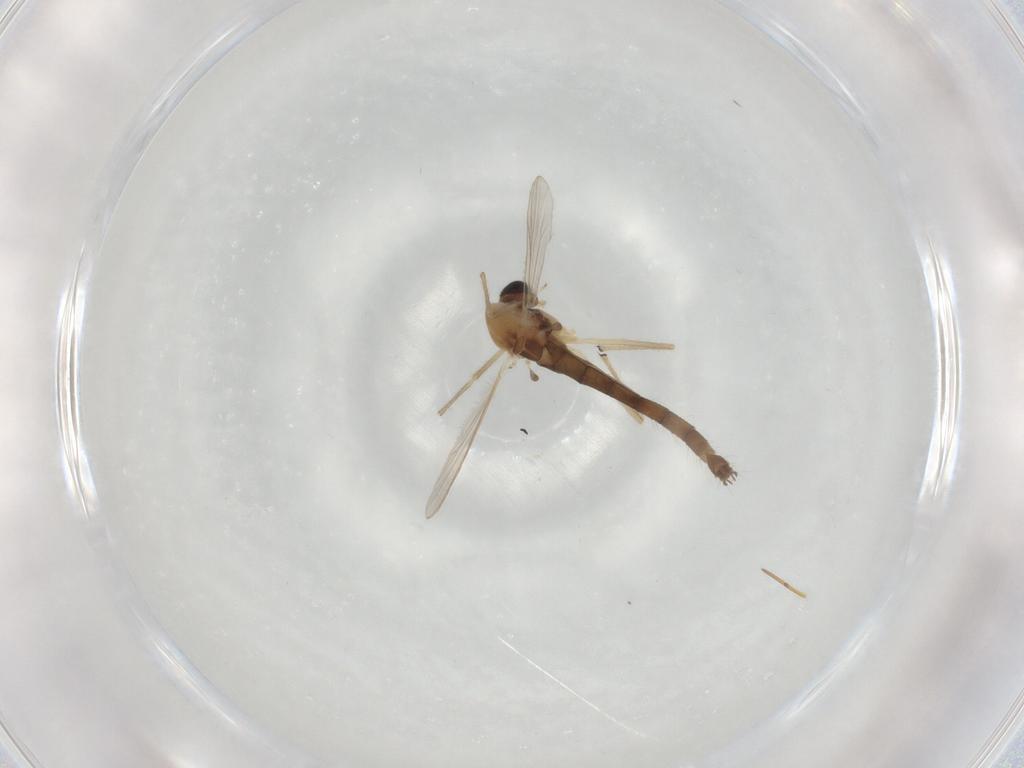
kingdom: Animalia
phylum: Arthropoda
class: Insecta
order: Diptera
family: Chironomidae
